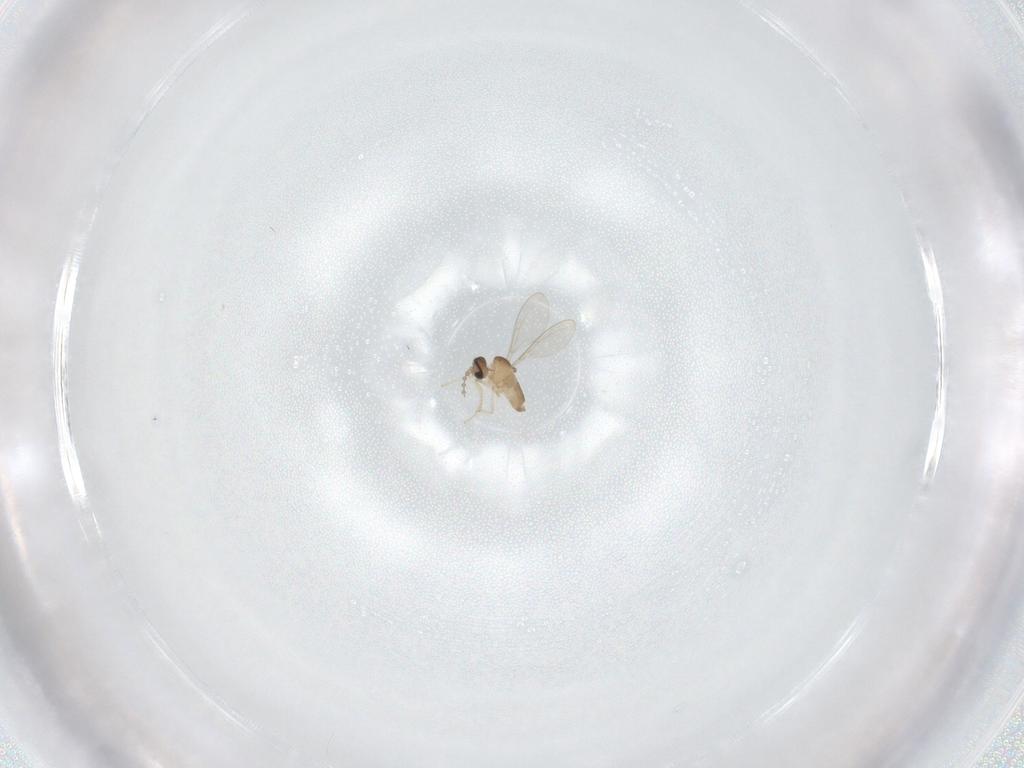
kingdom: Animalia
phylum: Arthropoda
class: Insecta
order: Diptera
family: Cecidomyiidae
